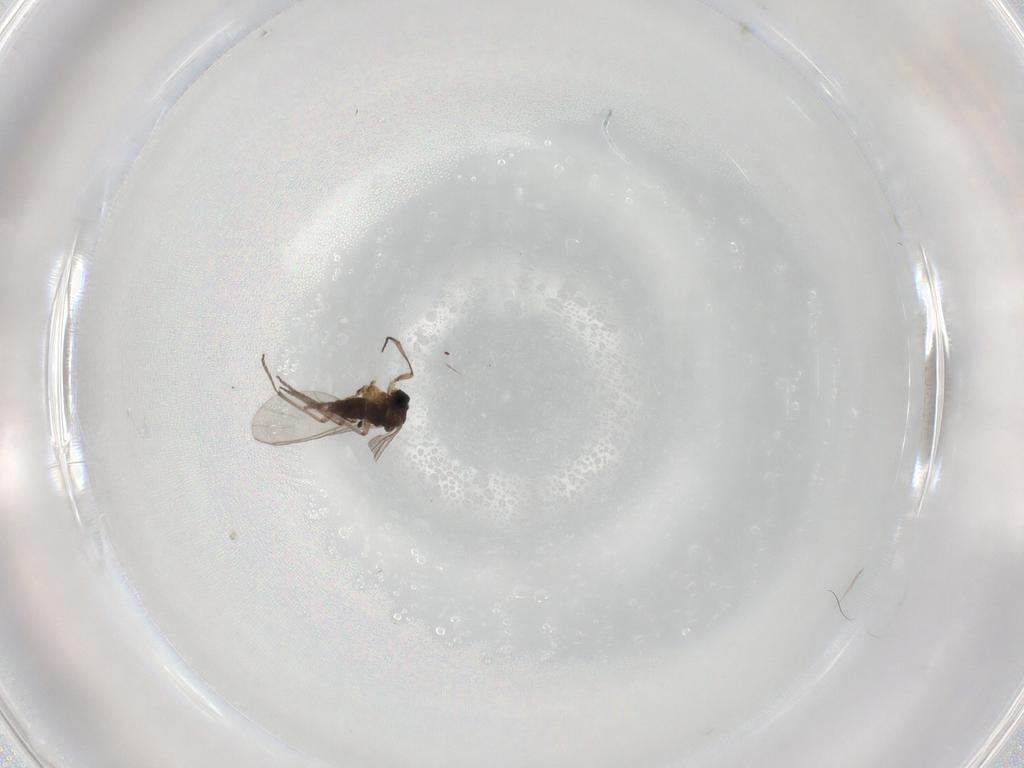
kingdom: Animalia
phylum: Arthropoda
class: Insecta
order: Diptera
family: Sciaridae
